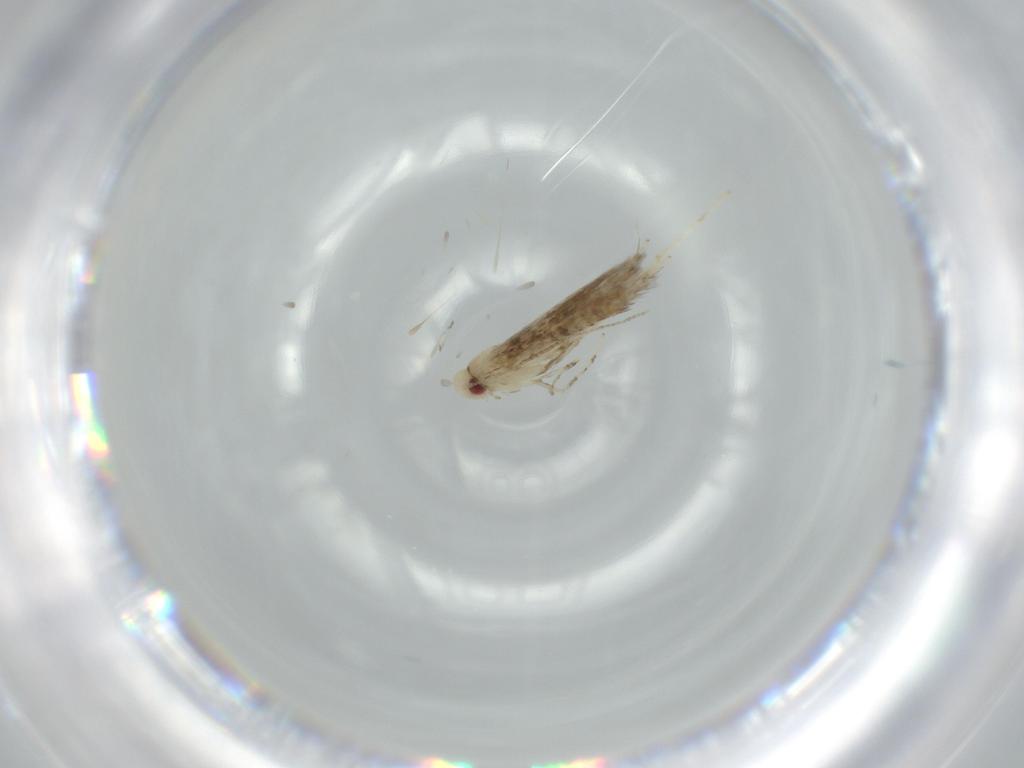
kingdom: Animalia
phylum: Arthropoda
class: Insecta
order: Lepidoptera
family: Gracillariidae
